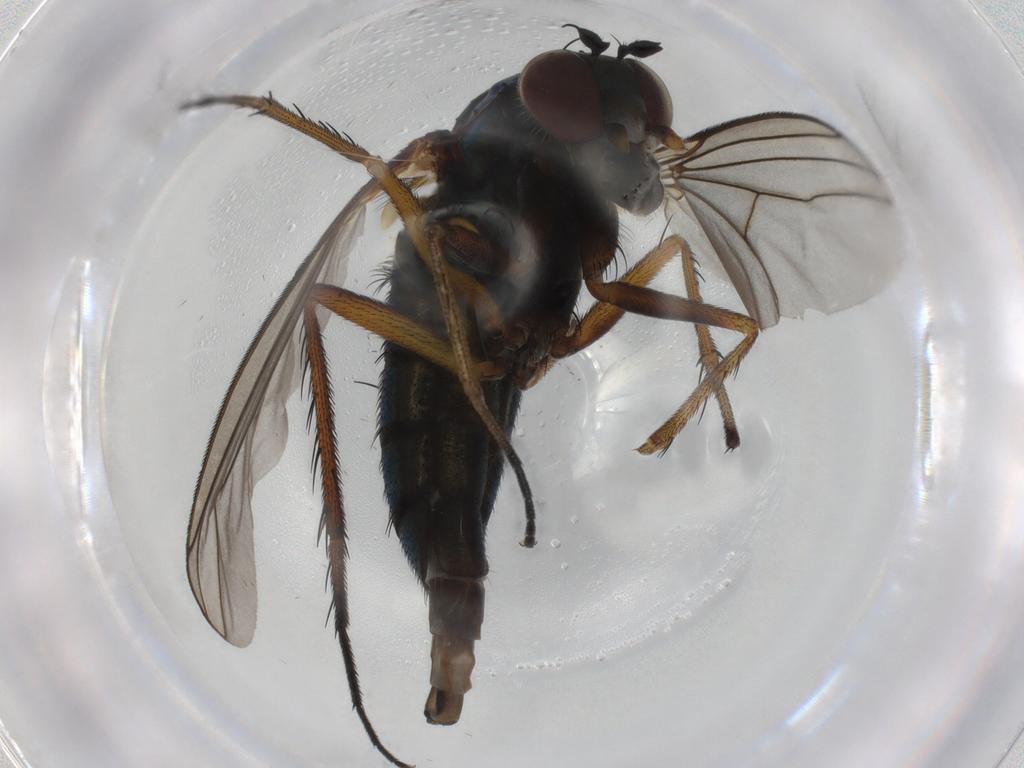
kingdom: Animalia
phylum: Arthropoda
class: Insecta
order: Diptera
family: Dolichopodidae
